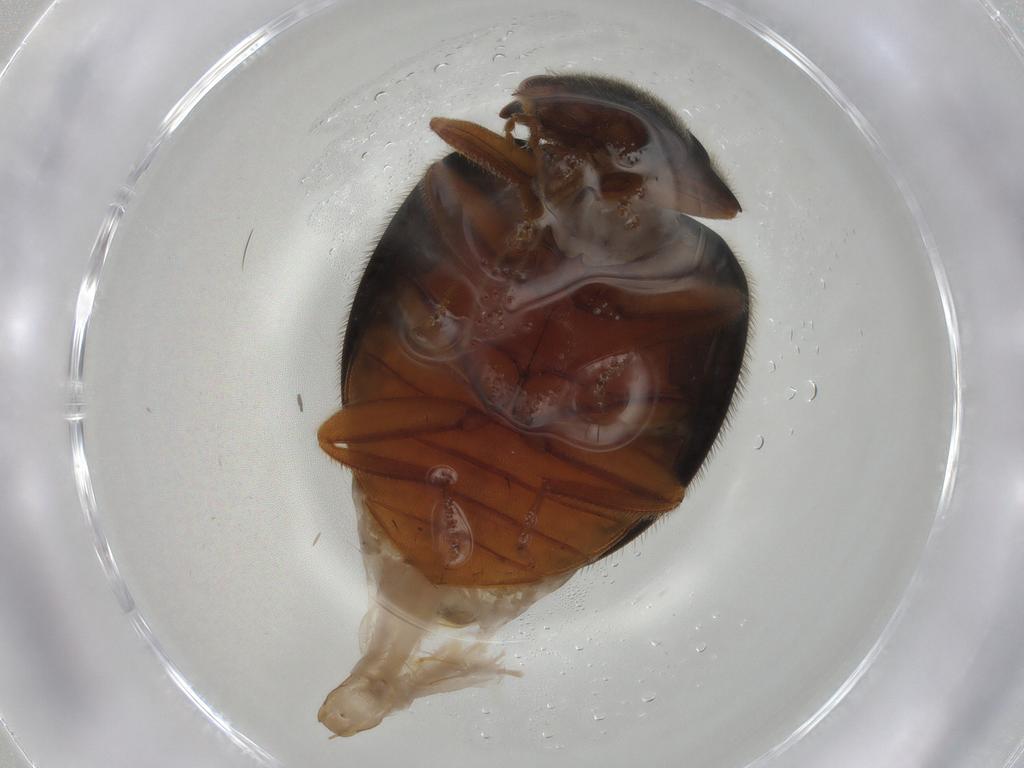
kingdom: Animalia
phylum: Arthropoda
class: Insecta
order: Coleoptera
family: Scirtidae
